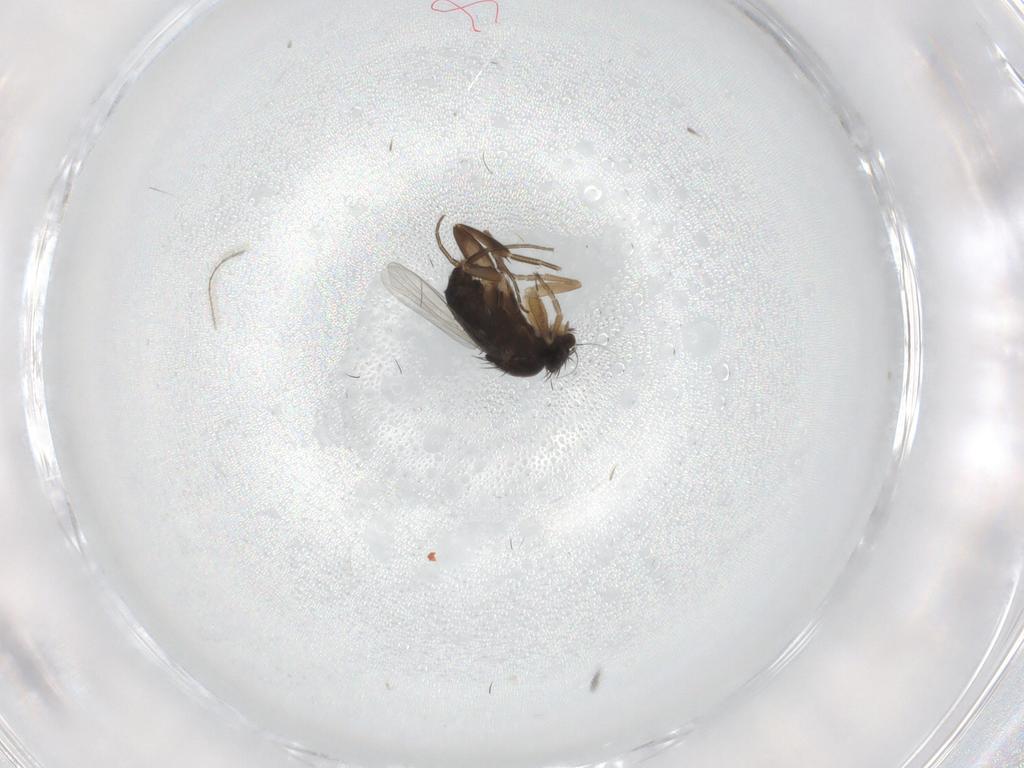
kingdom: Animalia
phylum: Arthropoda
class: Insecta
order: Diptera
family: Phoridae
